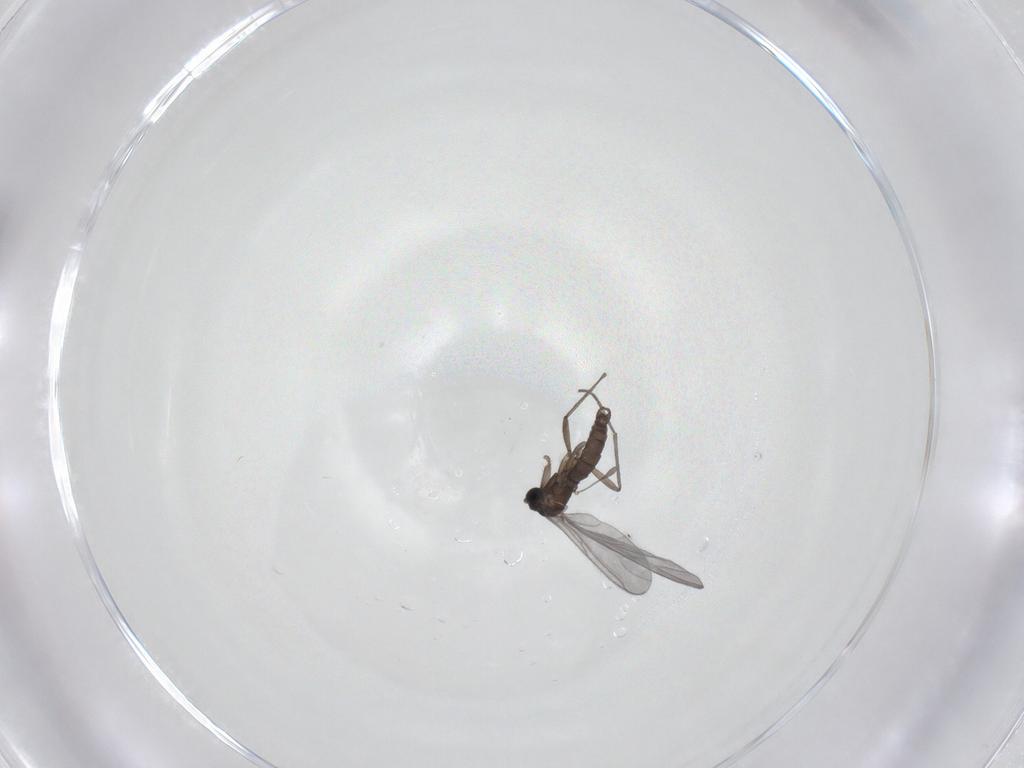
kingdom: Animalia
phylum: Arthropoda
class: Insecta
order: Diptera
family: Sciaridae
